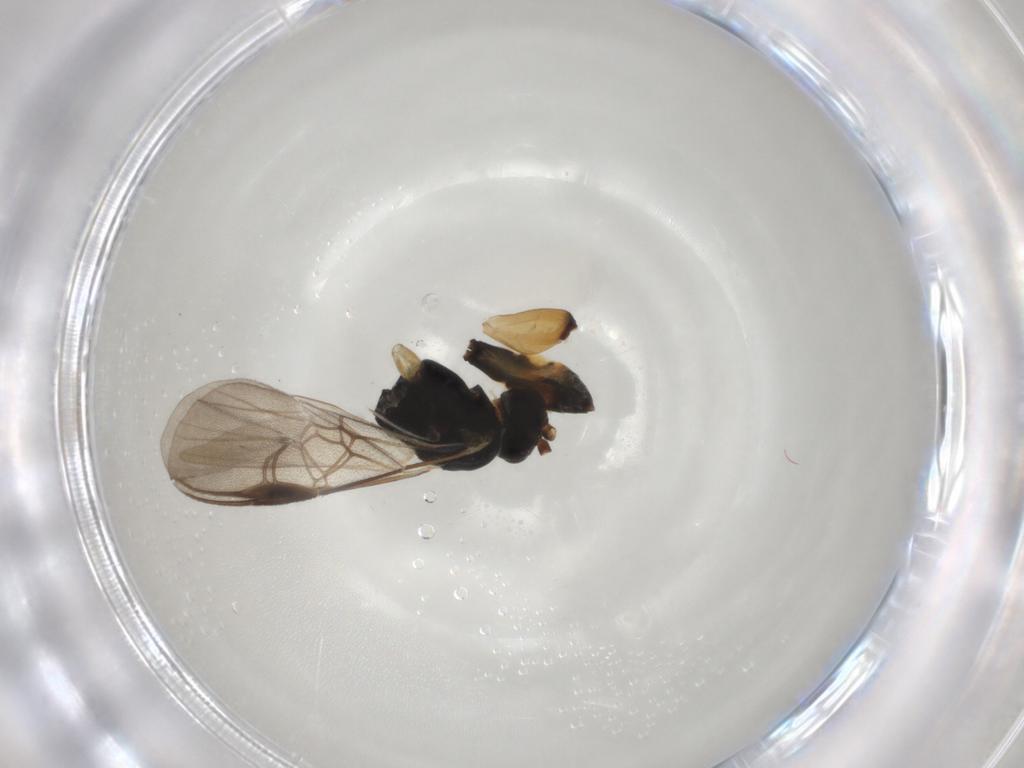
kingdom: Animalia
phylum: Arthropoda
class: Insecta
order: Hymenoptera
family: Braconidae
